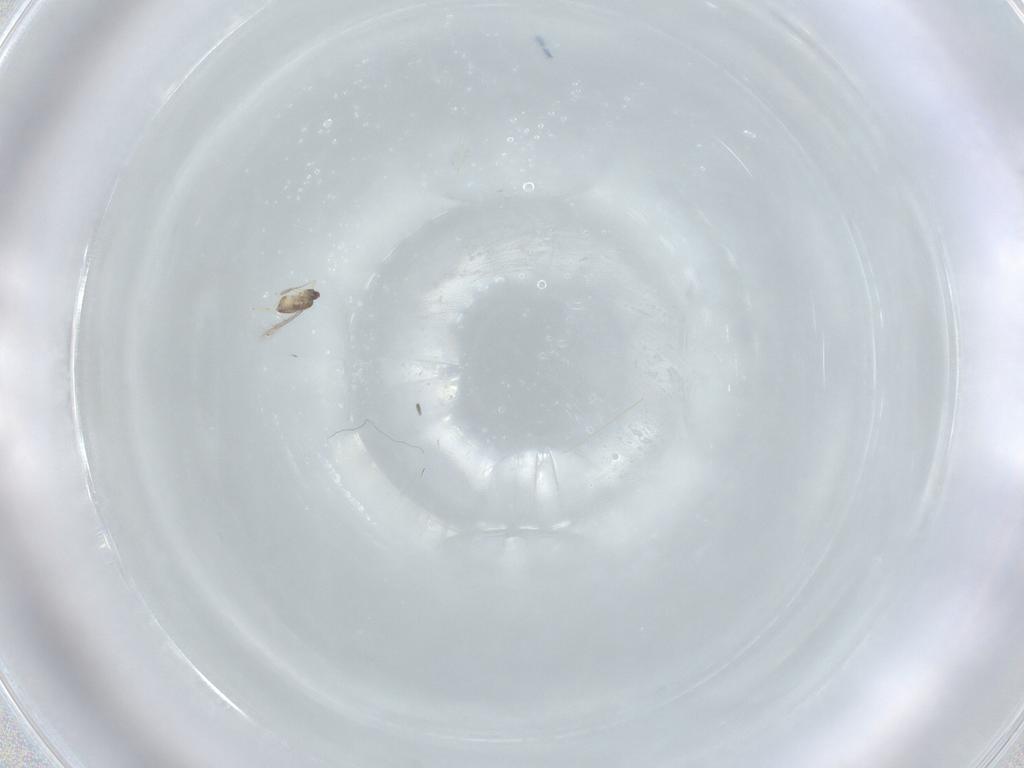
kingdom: Animalia
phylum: Arthropoda
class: Insecta
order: Hymenoptera
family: Mymaridae
